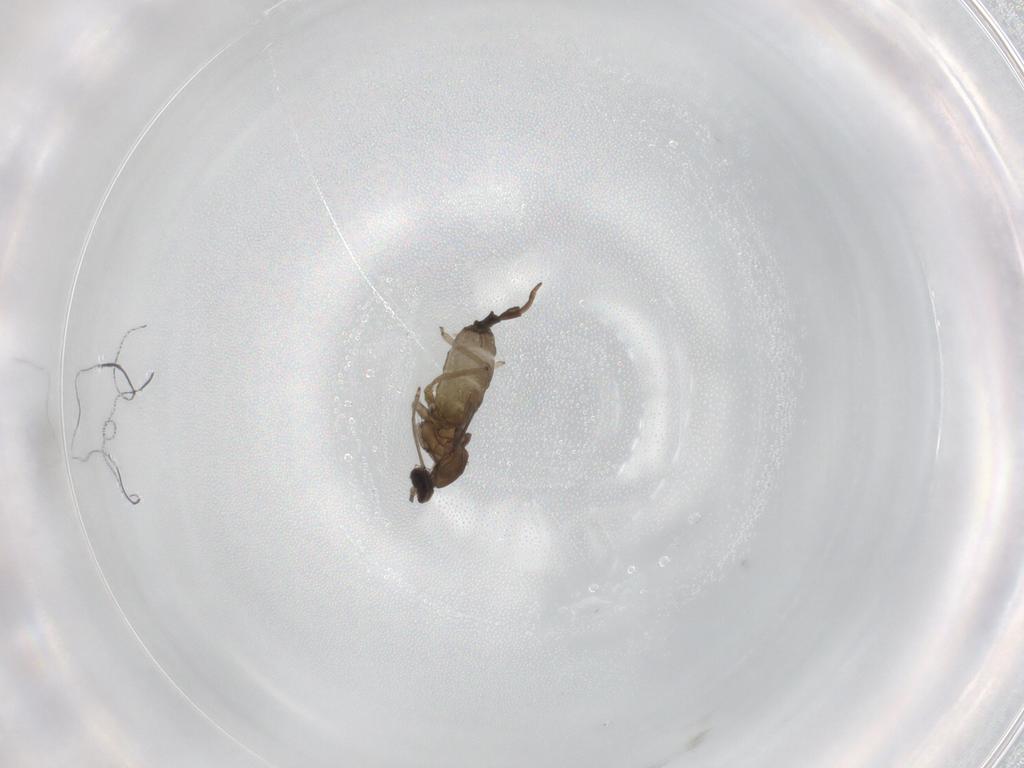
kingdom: Animalia
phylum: Arthropoda
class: Insecta
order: Diptera
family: Cecidomyiidae
